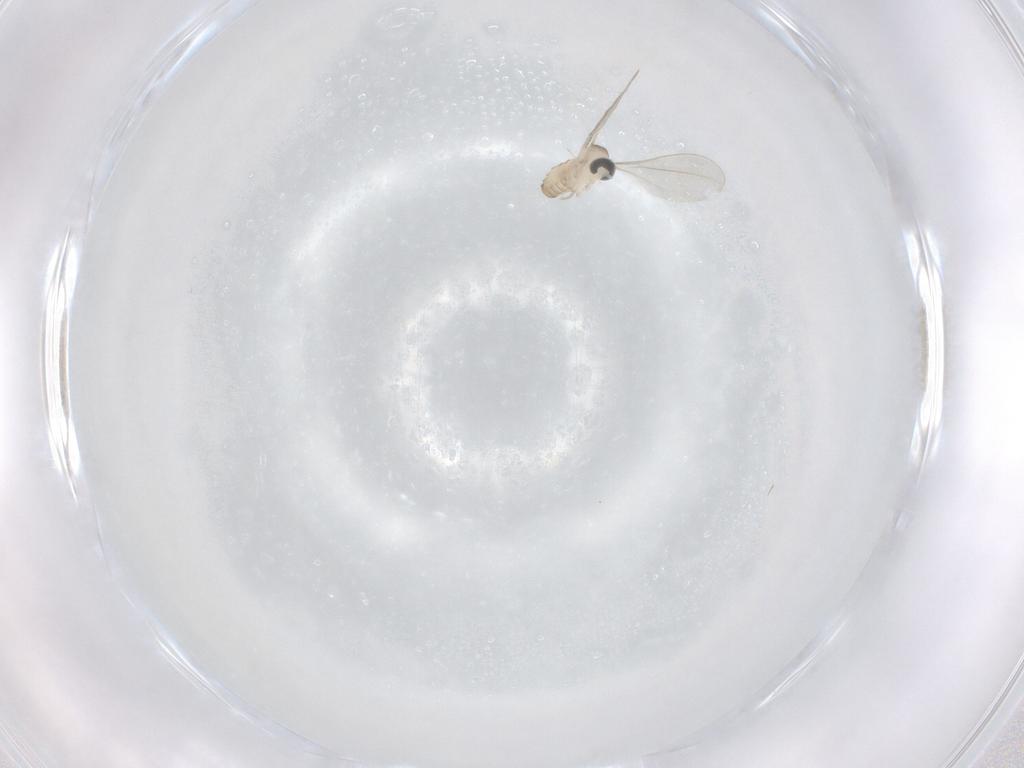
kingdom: Animalia
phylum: Arthropoda
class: Insecta
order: Diptera
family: Cecidomyiidae
